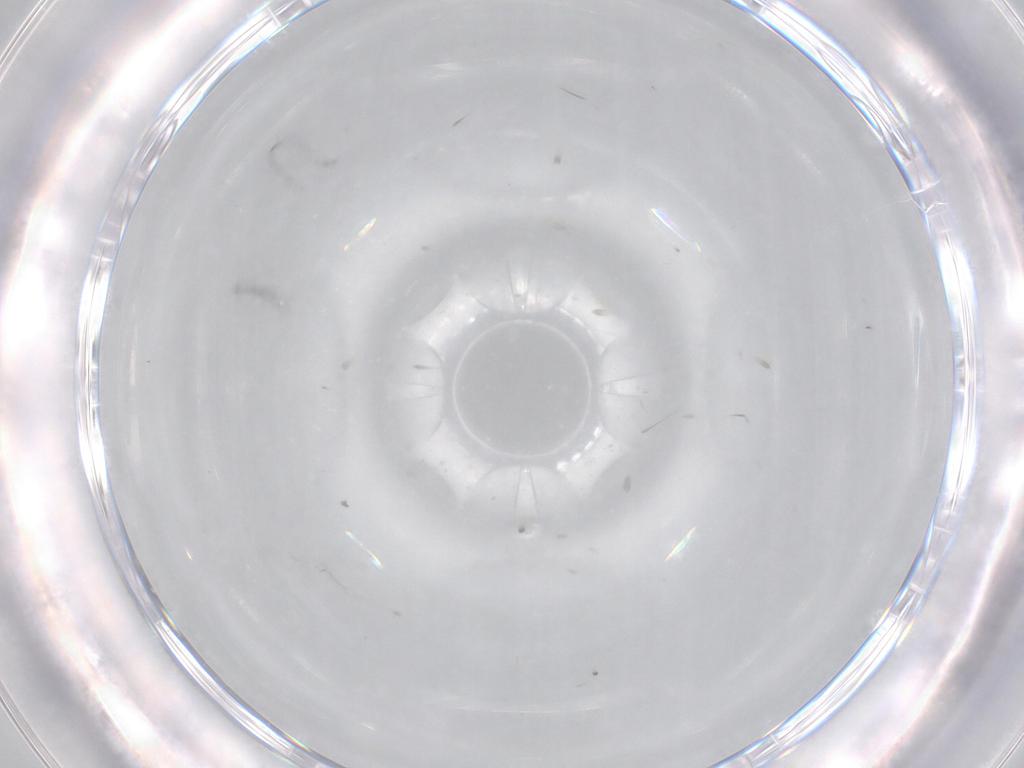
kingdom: Animalia
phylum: Arthropoda
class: Insecta
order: Hemiptera
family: Aleyrodidae
